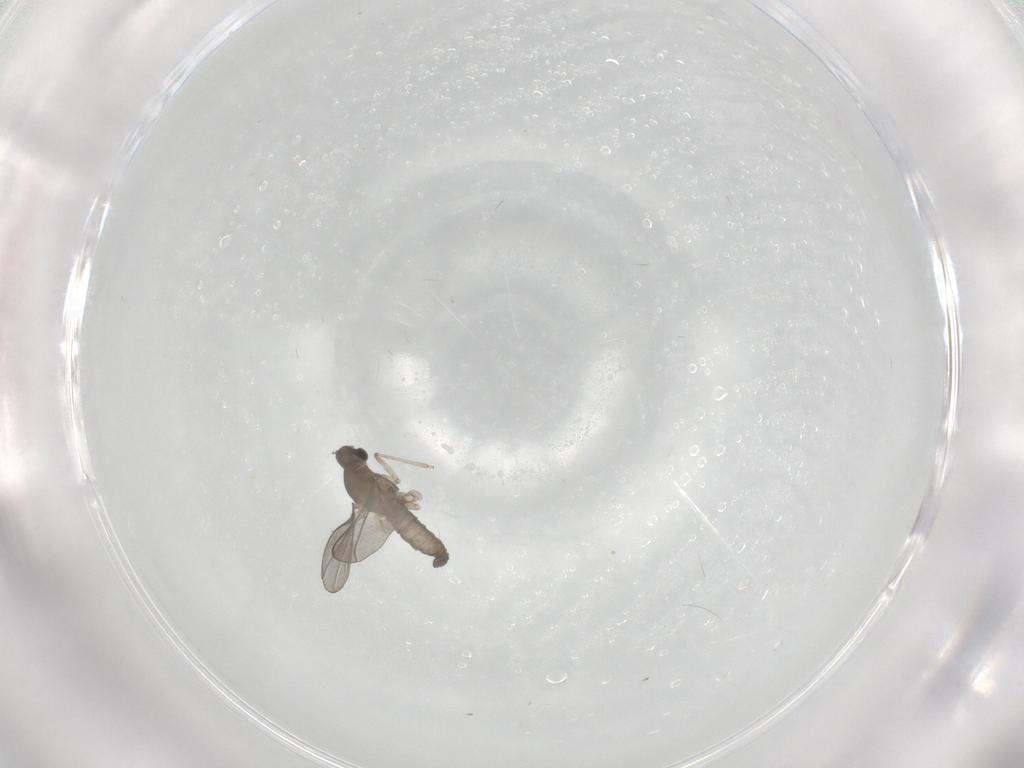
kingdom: Animalia
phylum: Arthropoda
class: Insecta
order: Diptera
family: Cecidomyiidae
